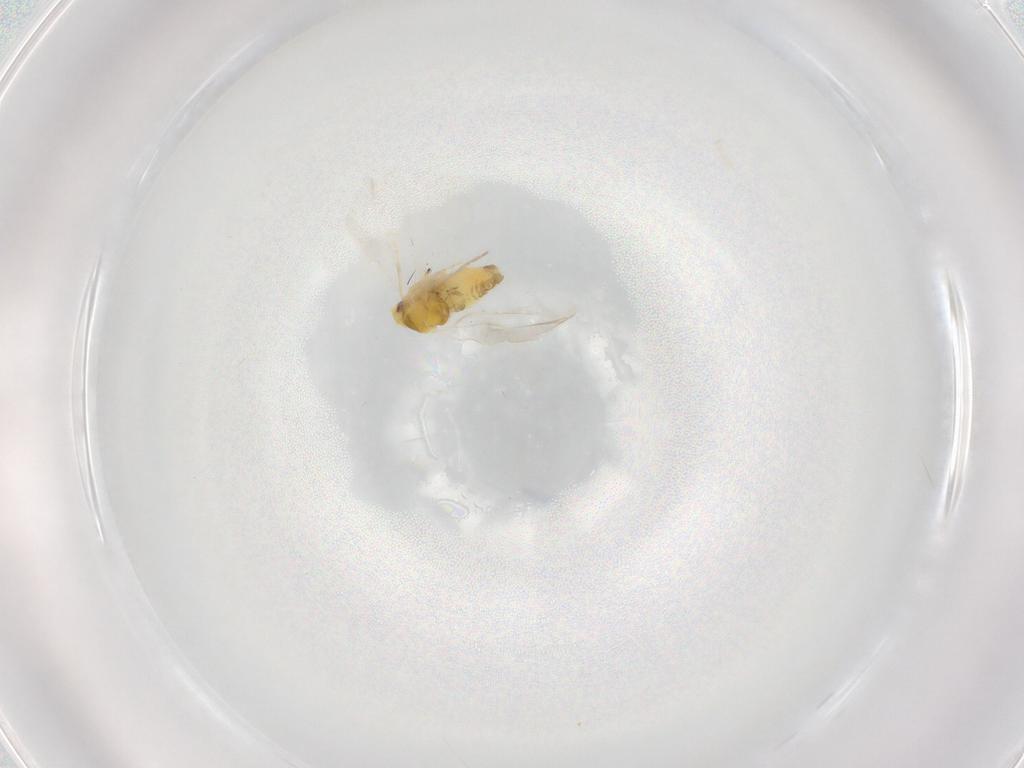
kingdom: Animalia
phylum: Arthropoda
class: Insecta
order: Hemiptera
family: Aleyrodidae
